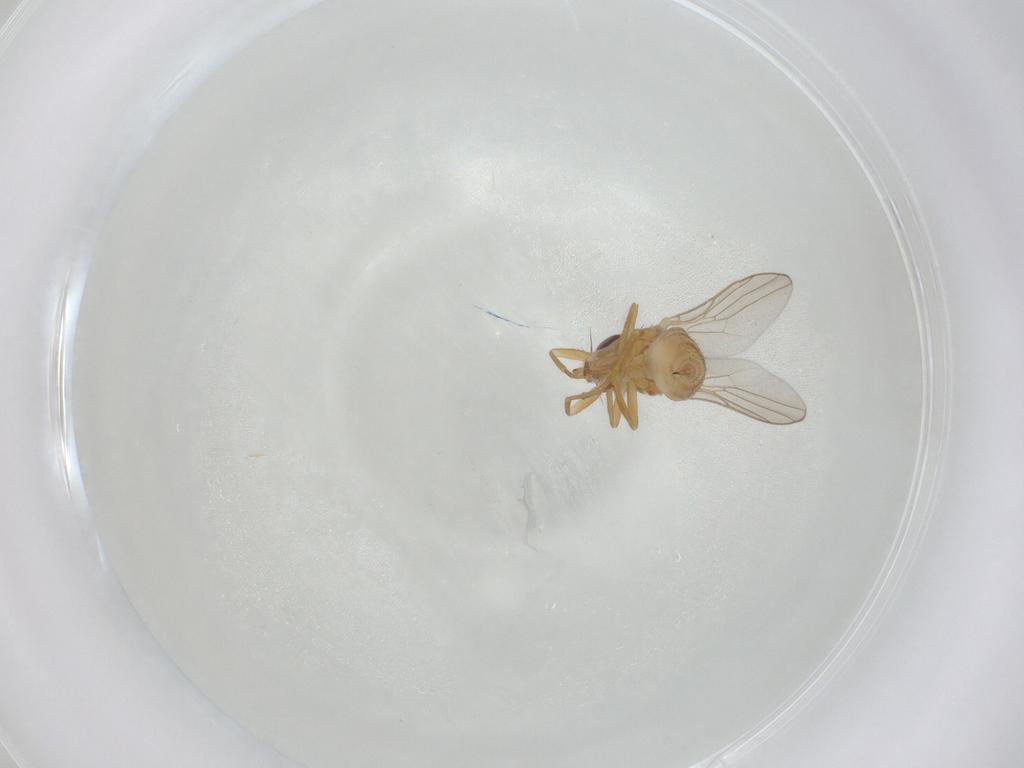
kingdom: Animalia
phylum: Arthropoda
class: Insecta
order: Diptera
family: Chloropidae
